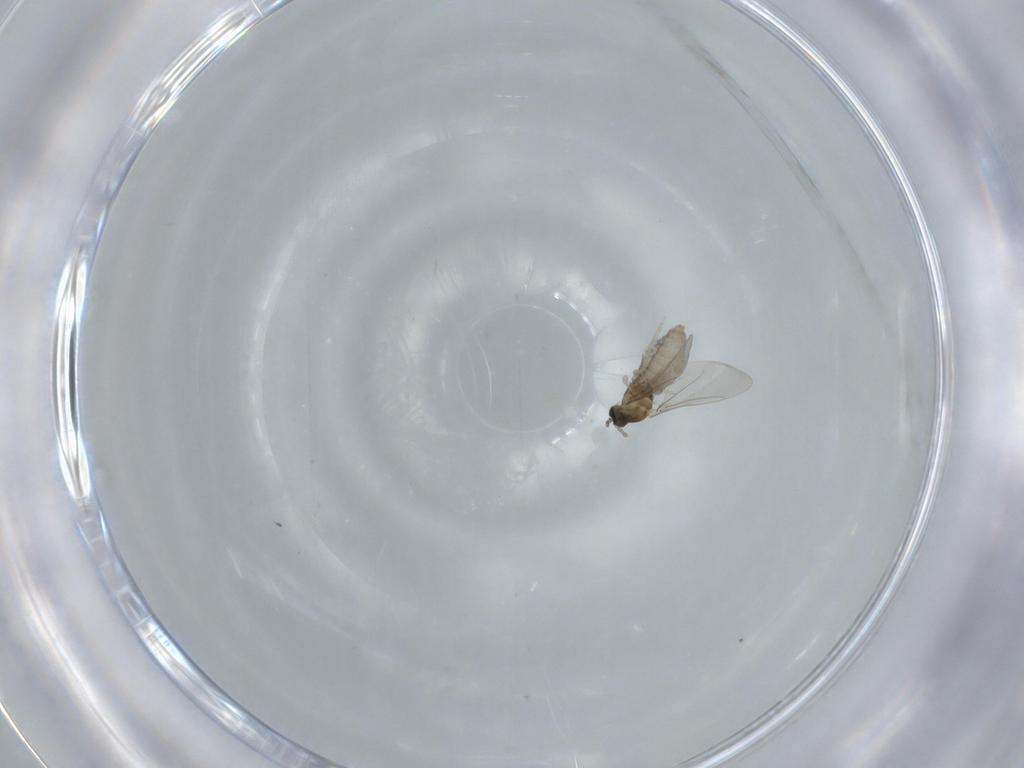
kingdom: Animalia
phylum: Arthropoda
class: Insecta
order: Diptera
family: Cecidomyiidae
